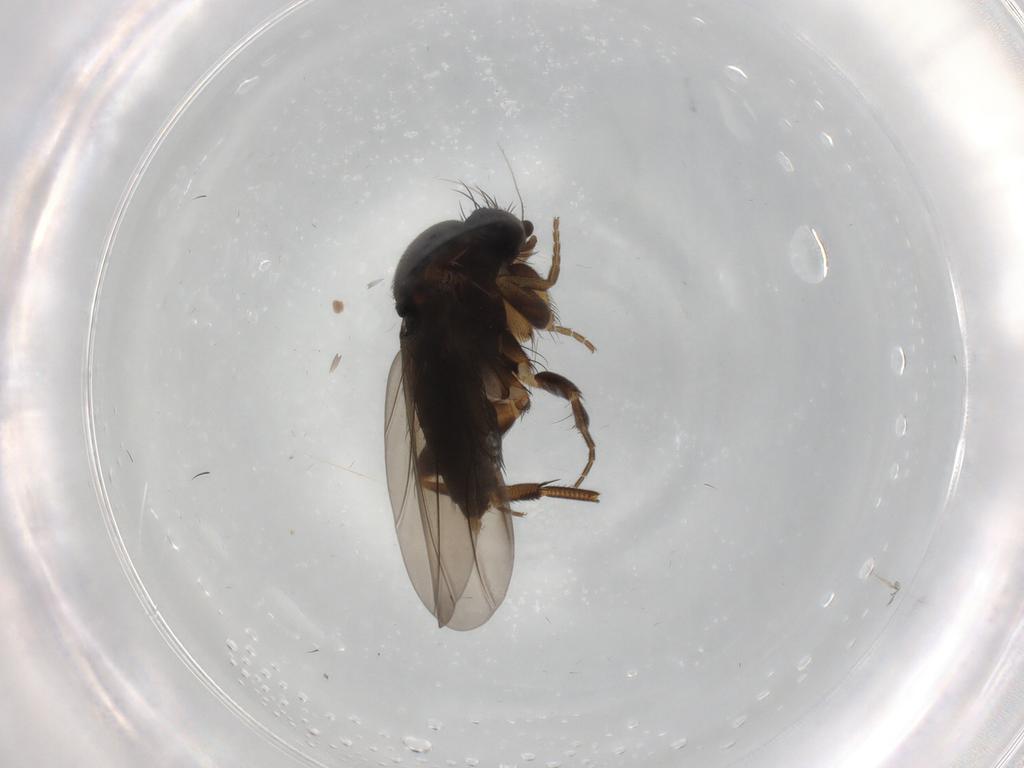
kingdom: Animalia
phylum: Arthropoda
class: Insecta
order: Diptera
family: Phoridae
